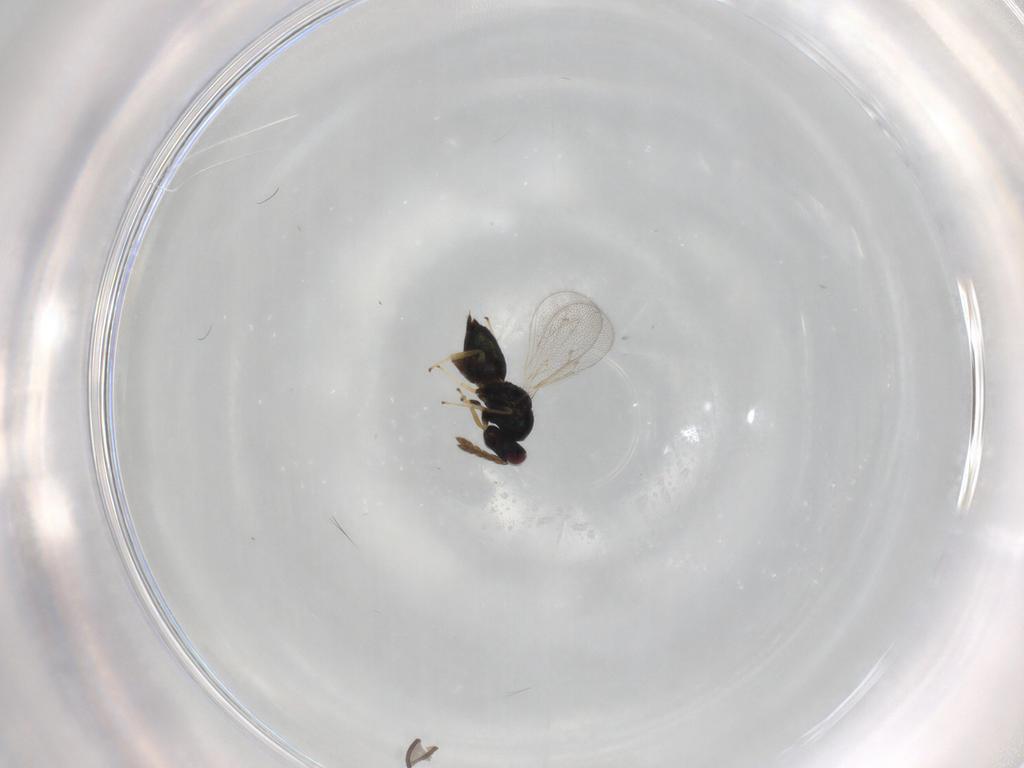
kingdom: Animalia
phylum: Arthropoda
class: Insecta
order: Hymenoptera
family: Eulophidae
